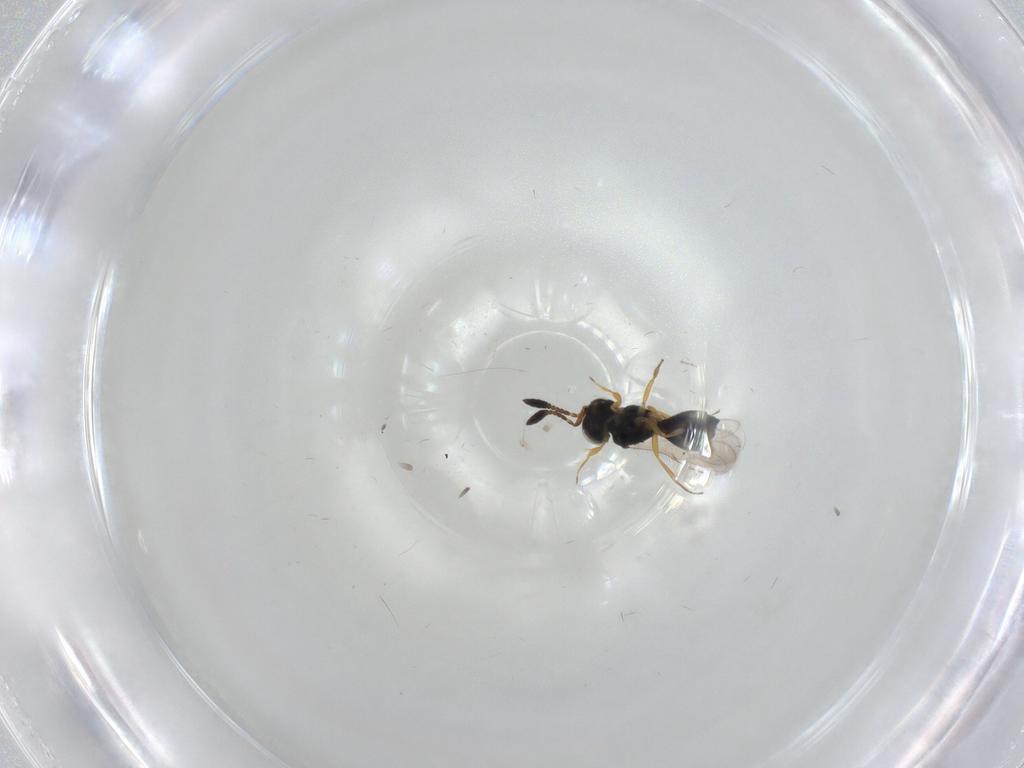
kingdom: Animalia
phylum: Arthropoda
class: Insecta
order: Hymenoptera
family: Scelionidae
